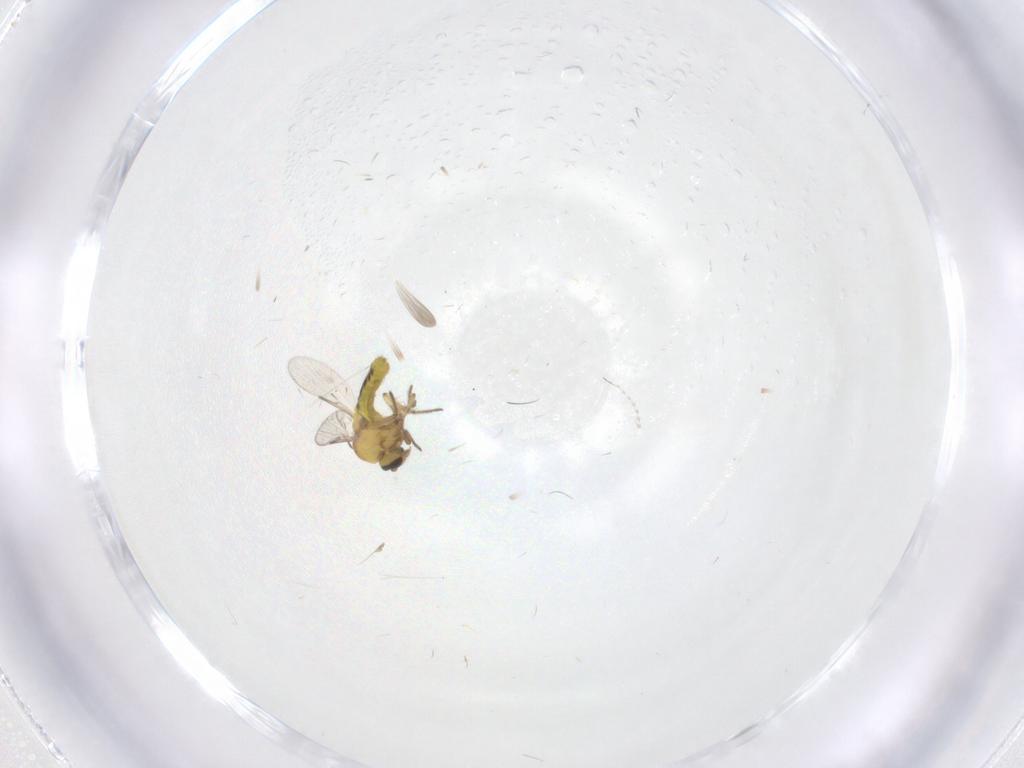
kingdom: Animalia
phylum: Arthropoda
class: Insecta
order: Diptera
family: Cecidomyiidae
